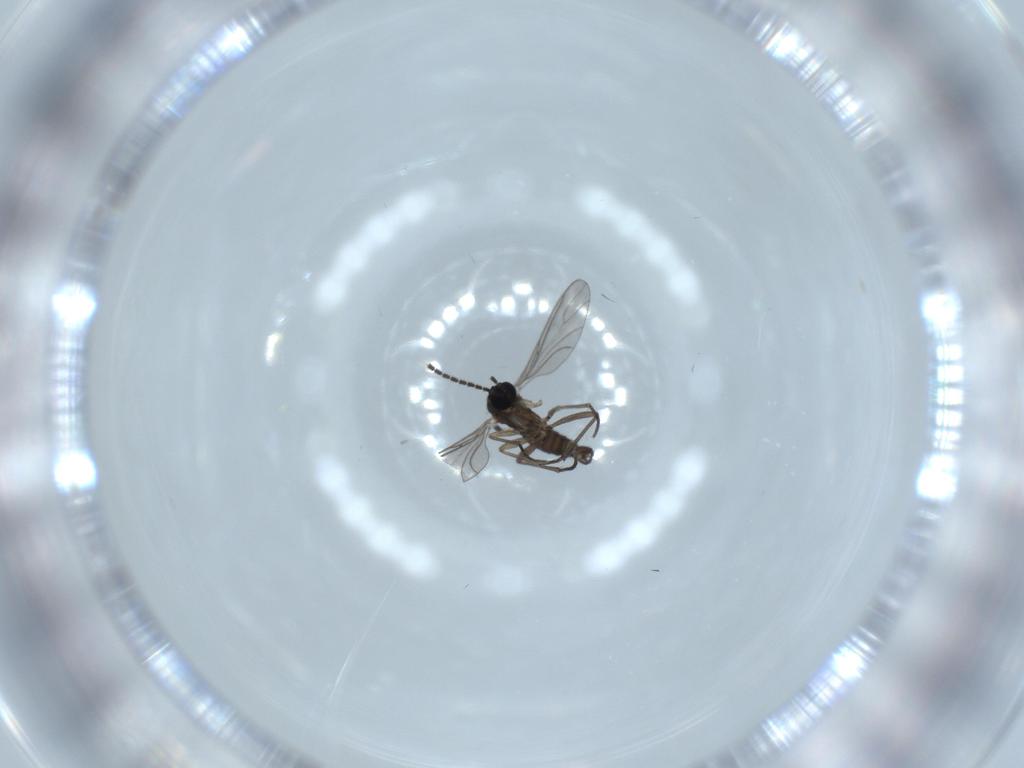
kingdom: Animalia
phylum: Arthropoda
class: Insecta
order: Diptera
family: Sciaridae
